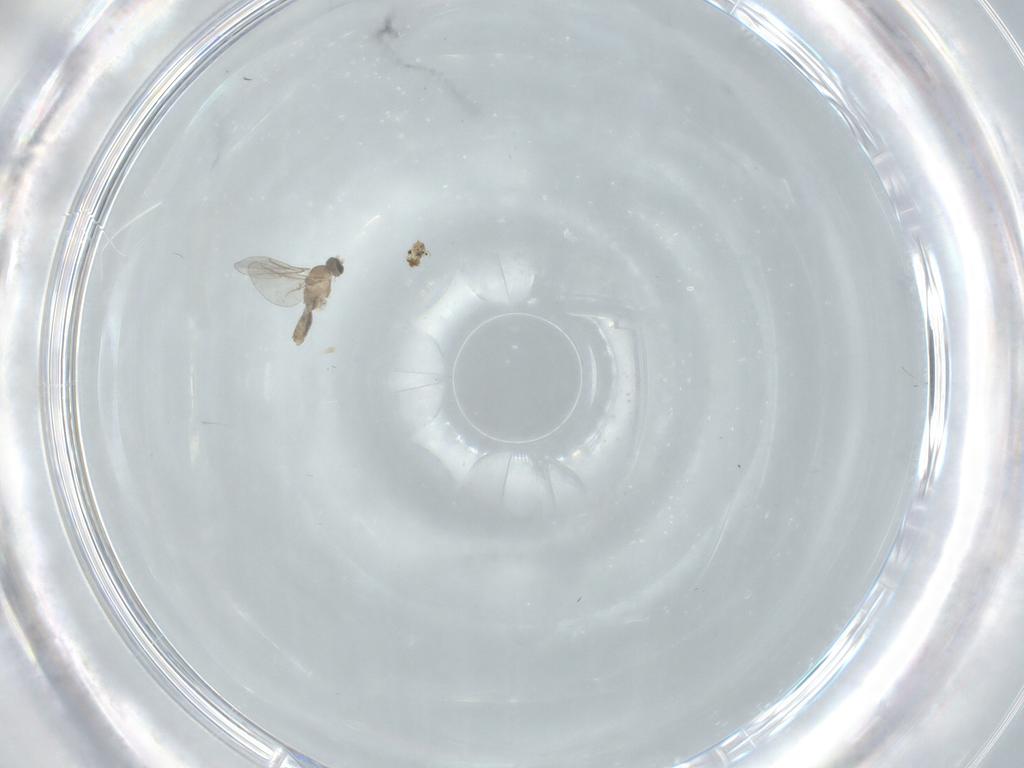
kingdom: Animalia
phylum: Arthropoda
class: Insecta
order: Diptera
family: Cecidomyiidae
